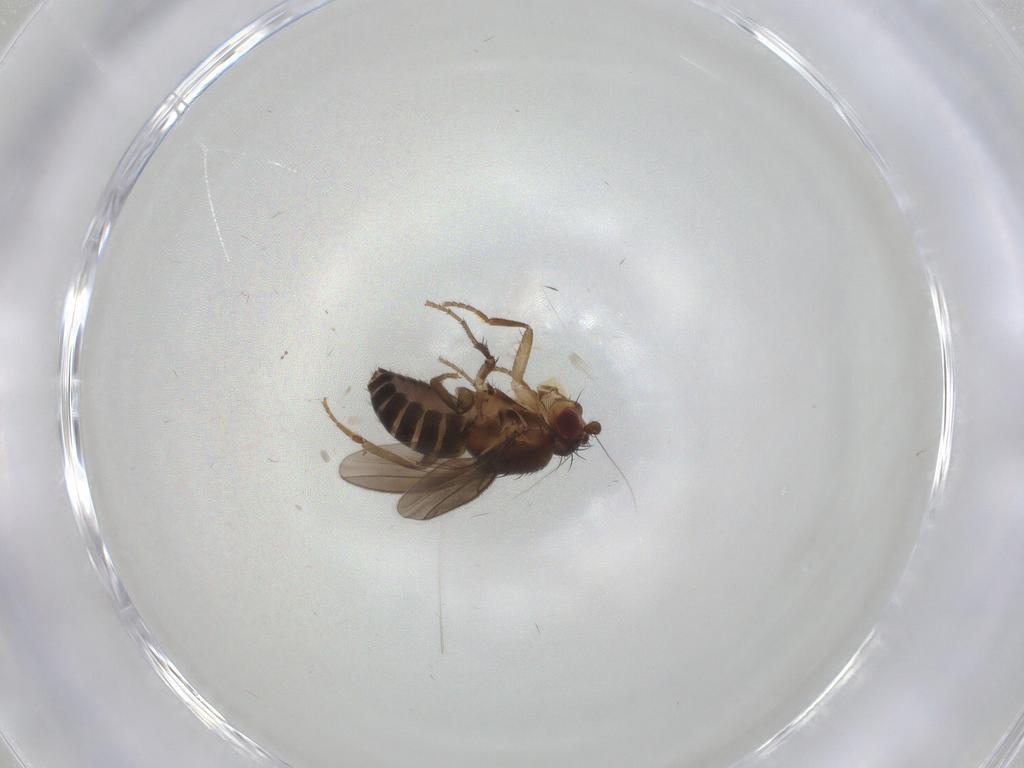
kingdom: Animalia
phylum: Arthropoda
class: Insecta
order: Diptera
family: Sphaeroceridae
